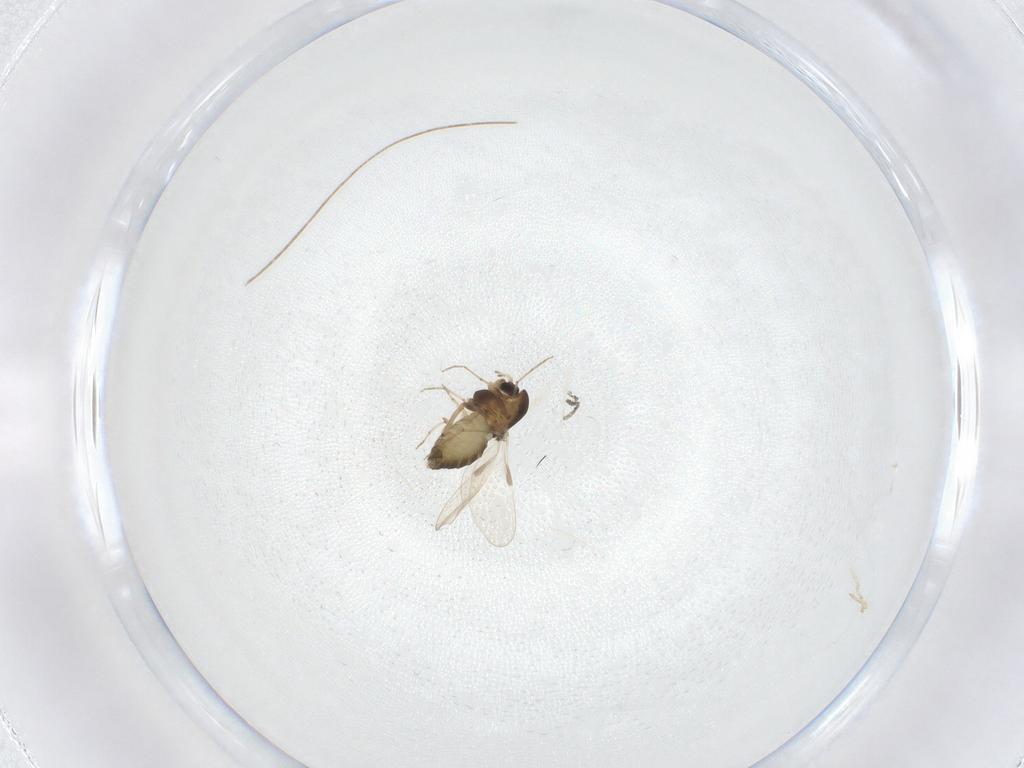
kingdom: Animalia
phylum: Arthropoda
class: Insecta
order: Diptera
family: Chironomidae
